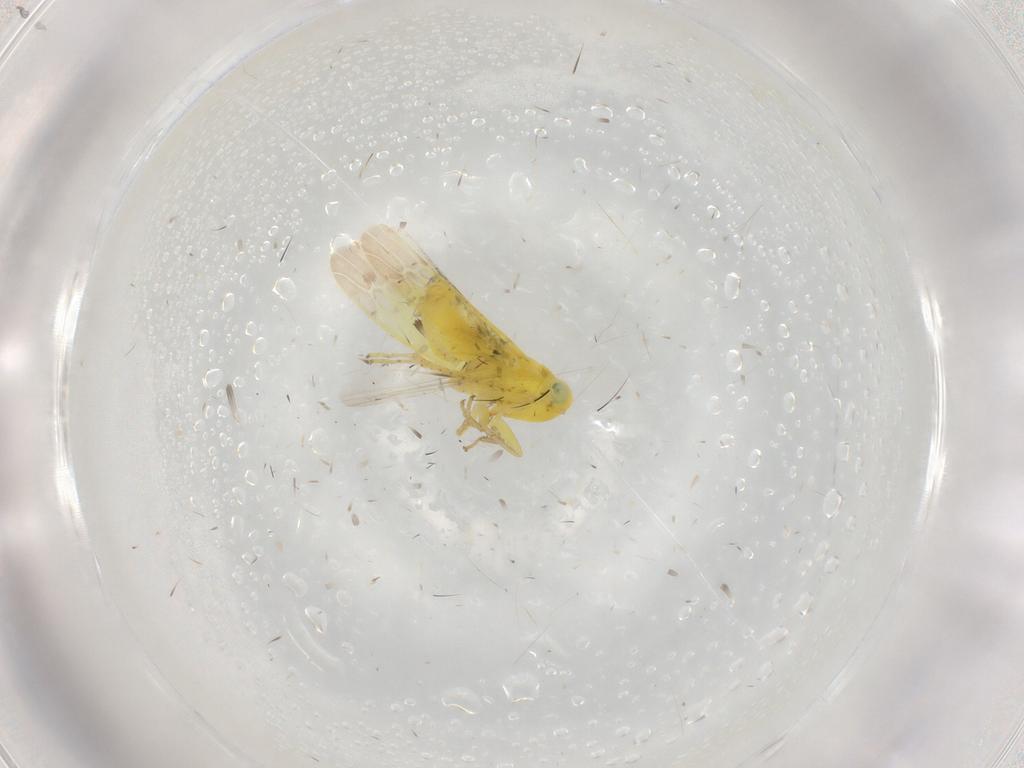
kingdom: Animalia
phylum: Arthropoda
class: Insecta
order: Hemiptera
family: Cicadellidae
